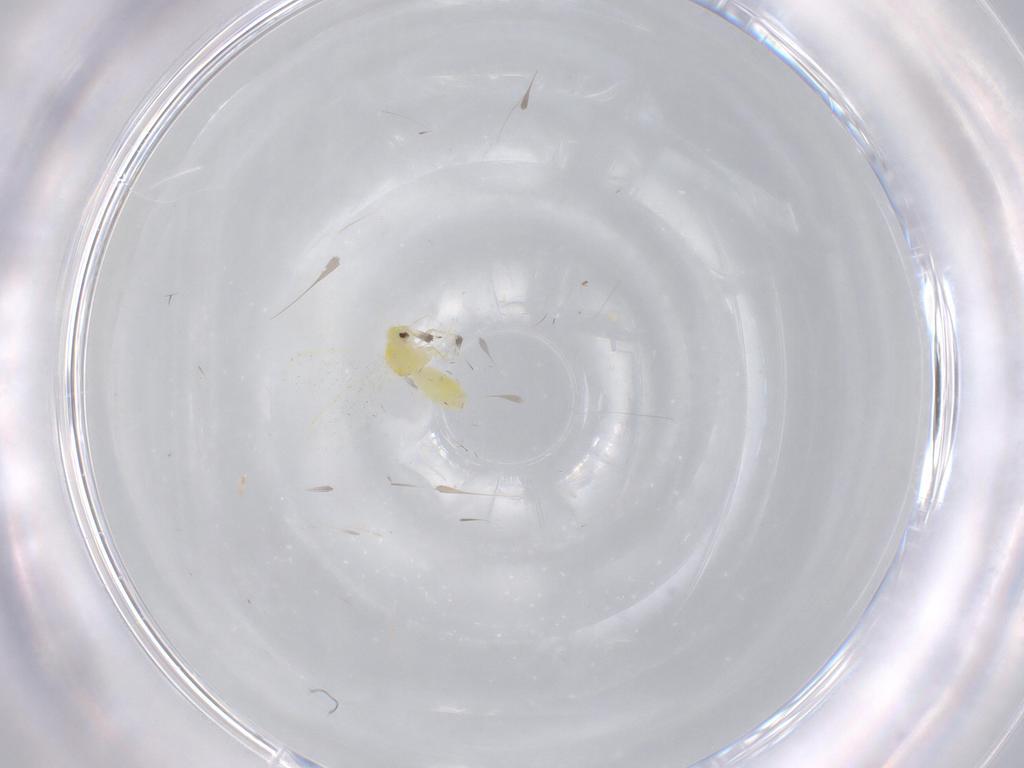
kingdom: Animalia
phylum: Arthropoda
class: Insecta
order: Hemiptera
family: Aleyrodidae
